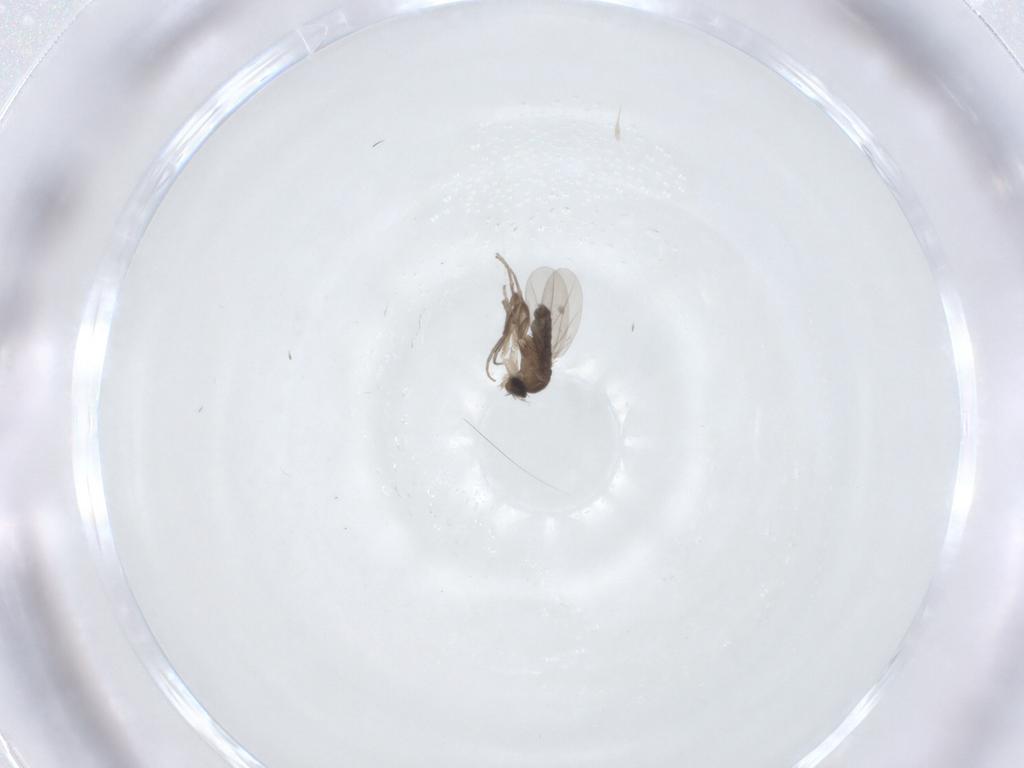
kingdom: Animalia
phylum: Arthropoda
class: Insecta
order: Diptera
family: Phoridae
